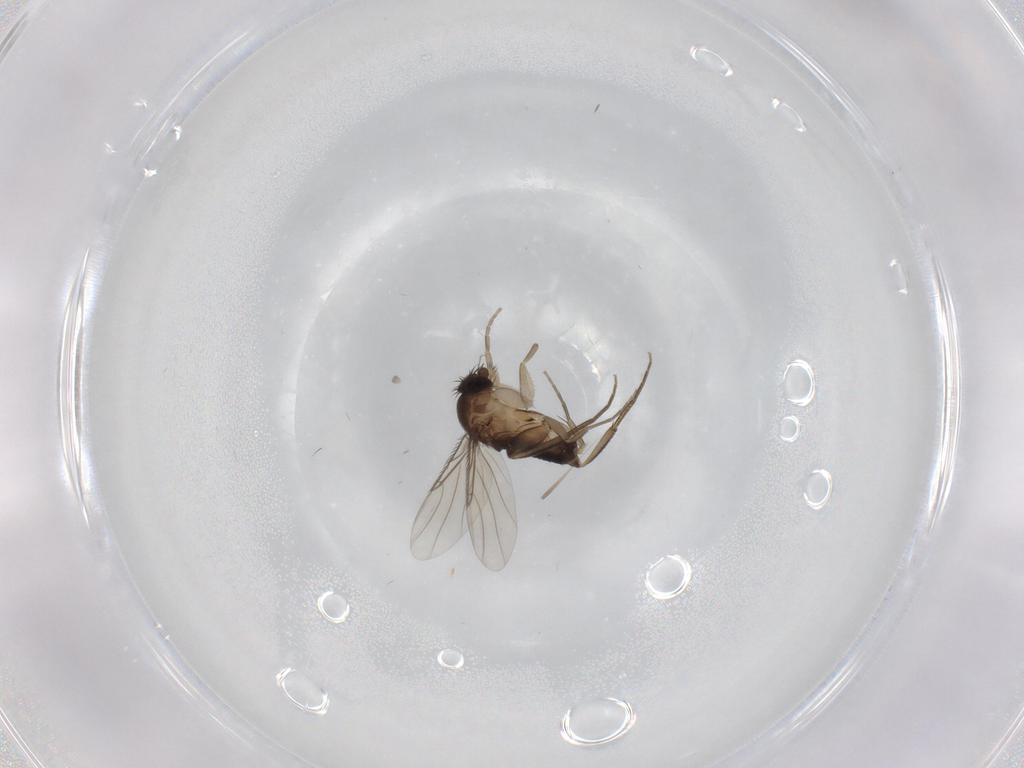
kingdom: Animalia
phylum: Arthropoda
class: Insecta
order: Diptera
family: Phoridae
